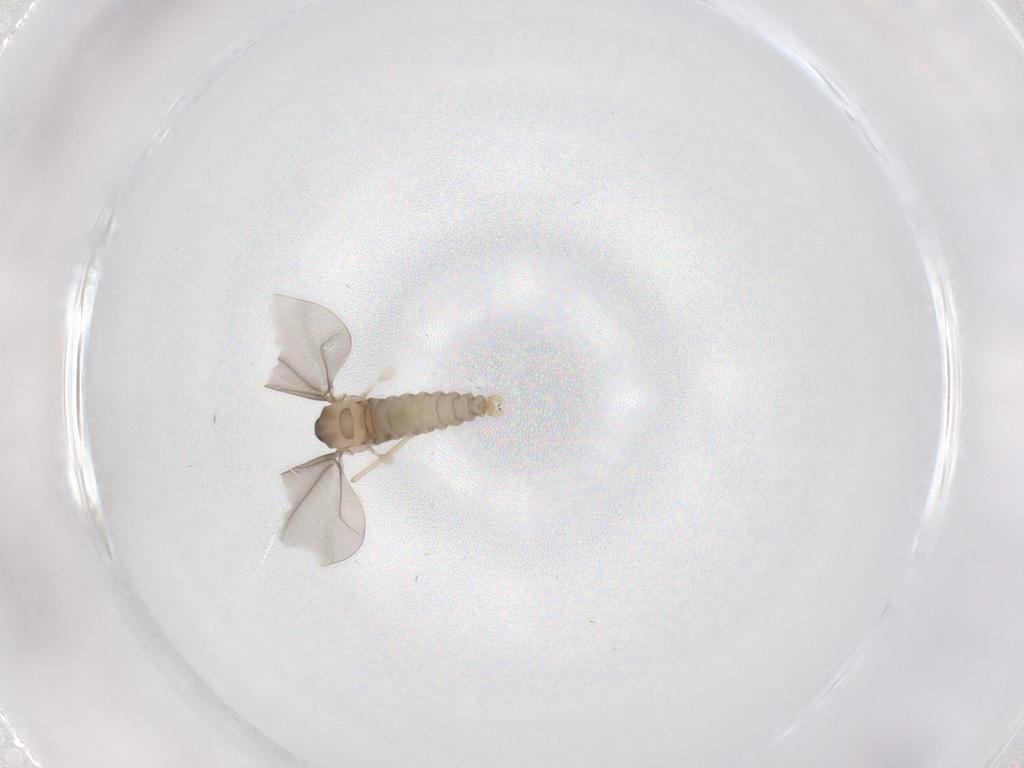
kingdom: Animalia
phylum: Arthropoda
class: Insecta
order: Diptera
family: Cecidomyiidae
